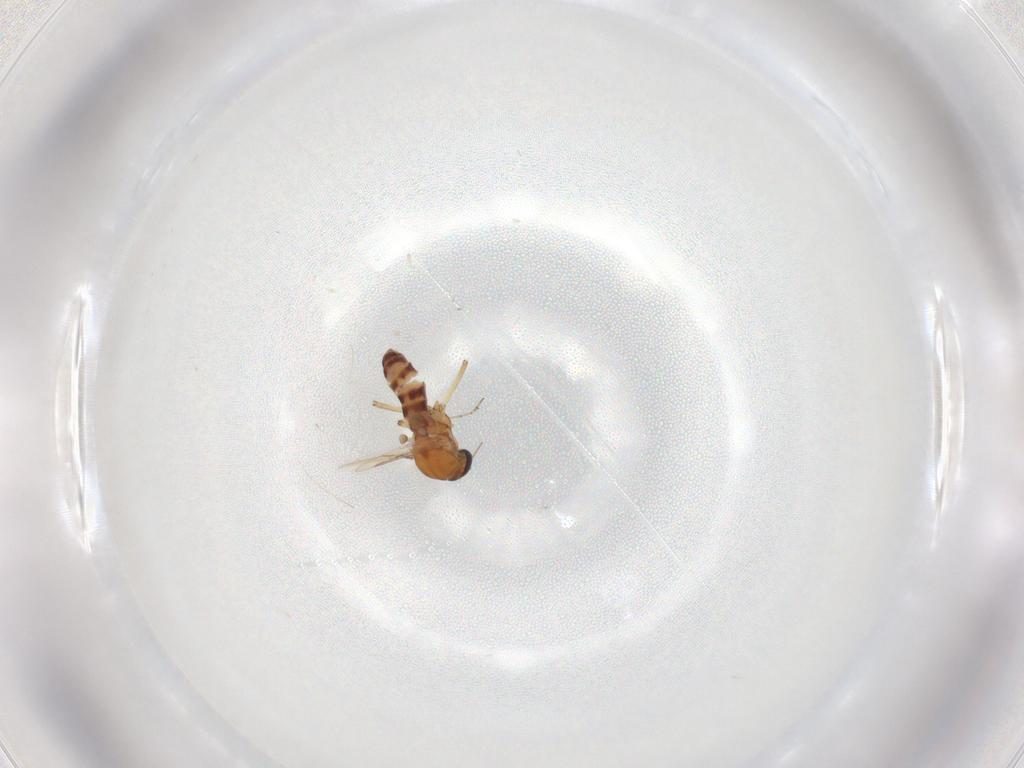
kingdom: Animalia
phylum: Arthropoda
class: Insecta
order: Diptera
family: Ceratopogonidae
